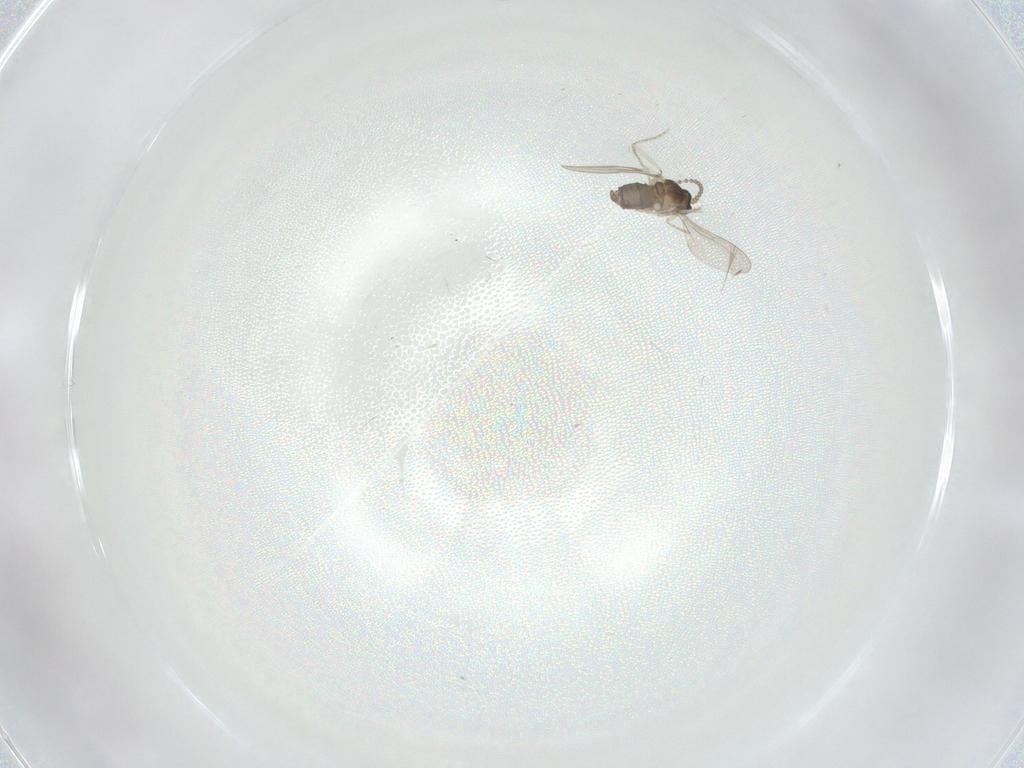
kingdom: Animalia
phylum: Arthropoda
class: Insecta
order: Diptera
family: Cecidomyiidae
